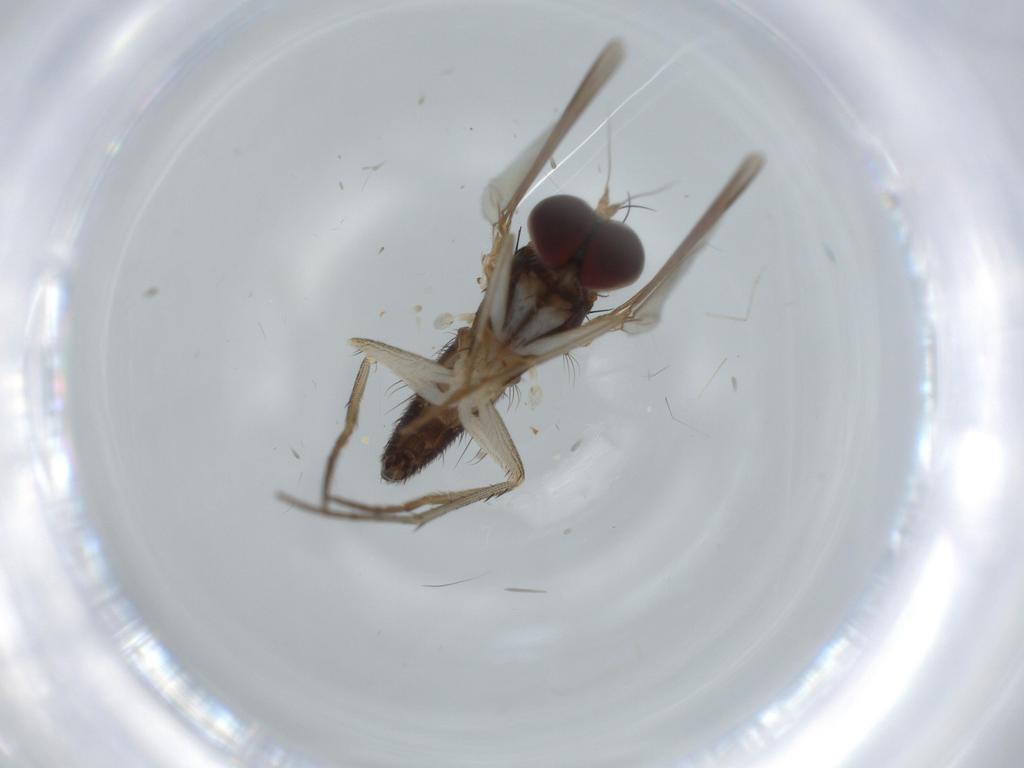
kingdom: Animalia
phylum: Arthropoda
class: Insecta
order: Diptera
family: Dolichopodidae
